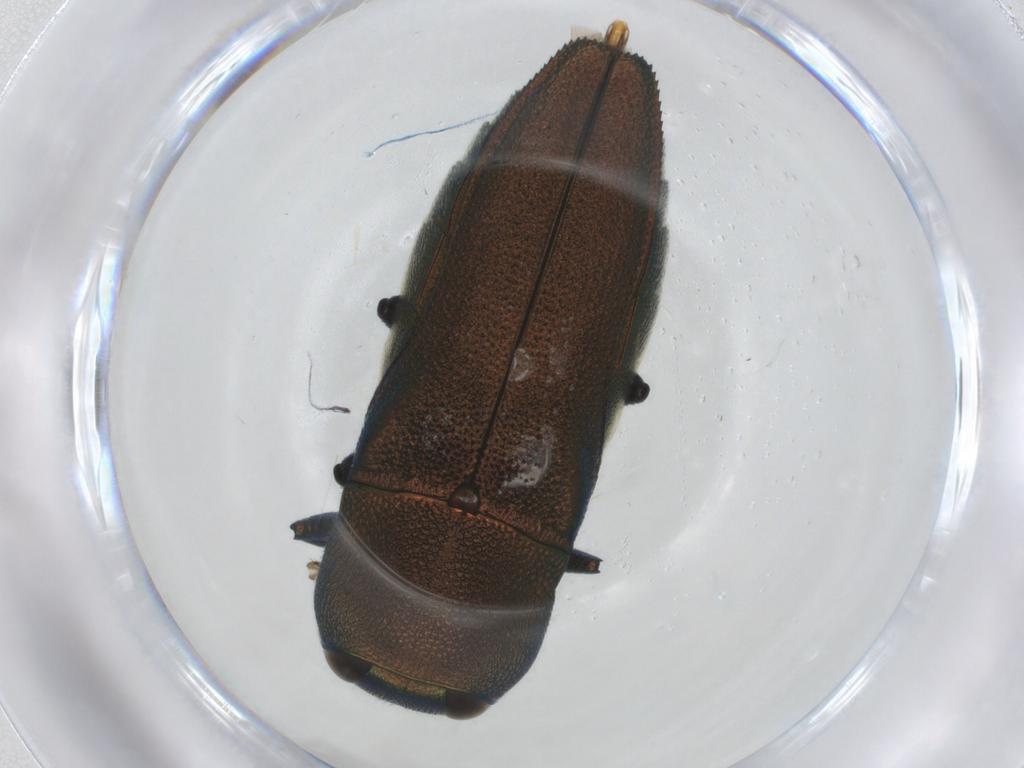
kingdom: Animalia
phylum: Arthropoda
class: Insecta
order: Coleoptera
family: Buprestidae
